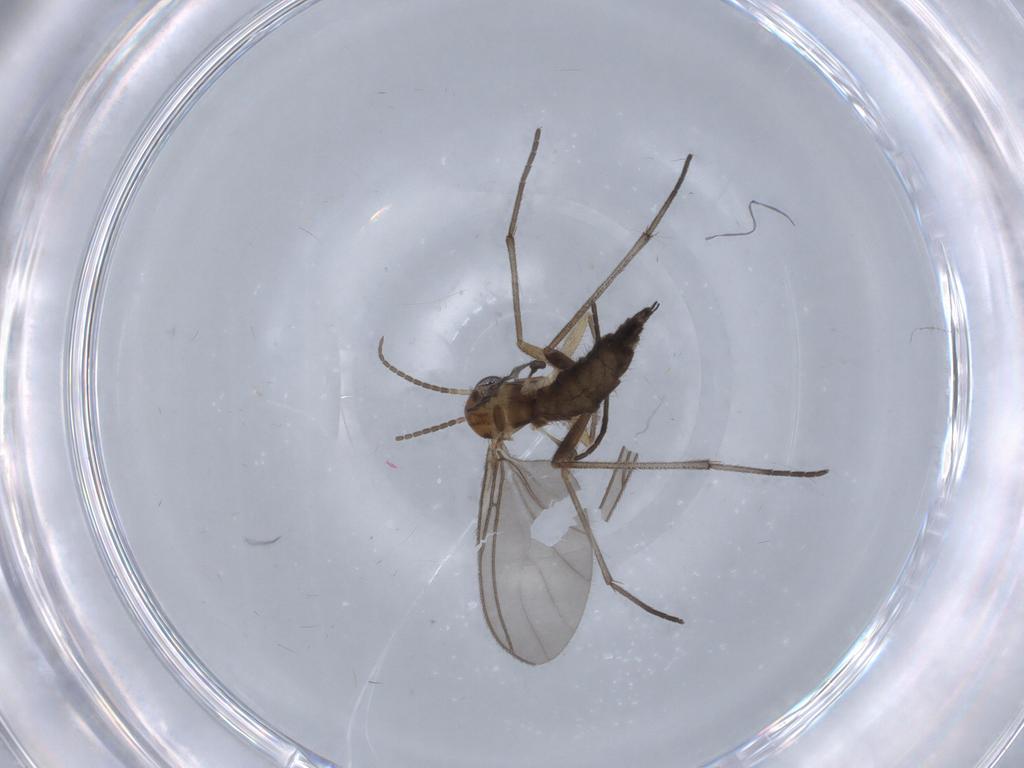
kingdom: Animalia
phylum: Arthropoda
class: Insecta
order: Diptera
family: Sciaridae
